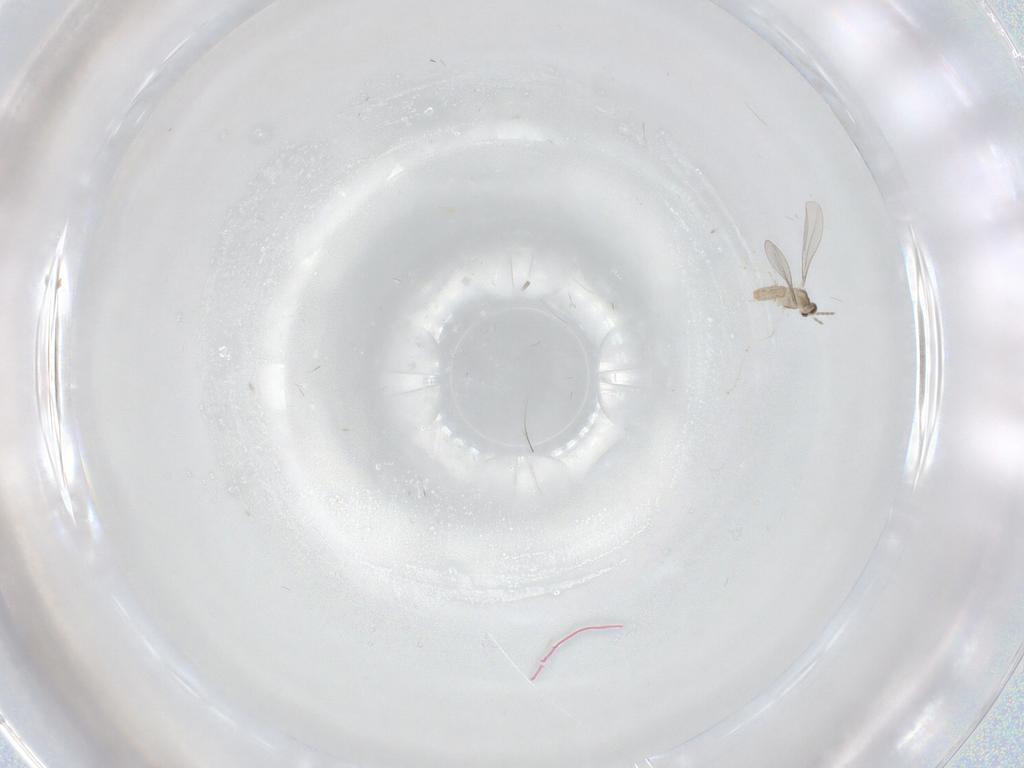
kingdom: Animalia
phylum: Arthropoda
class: Insecta
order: Diptera
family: Cecidomyiidae
